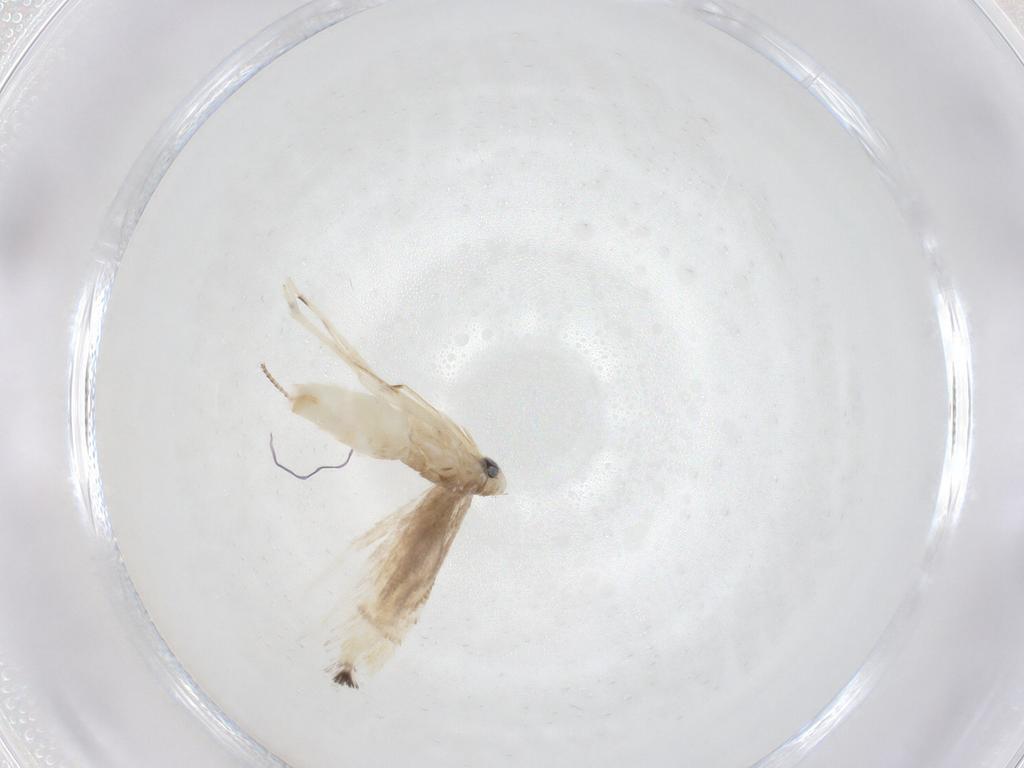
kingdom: Animalia
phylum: Arthropoda
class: Insecta
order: Lepidoptera
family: Gracillariidae
